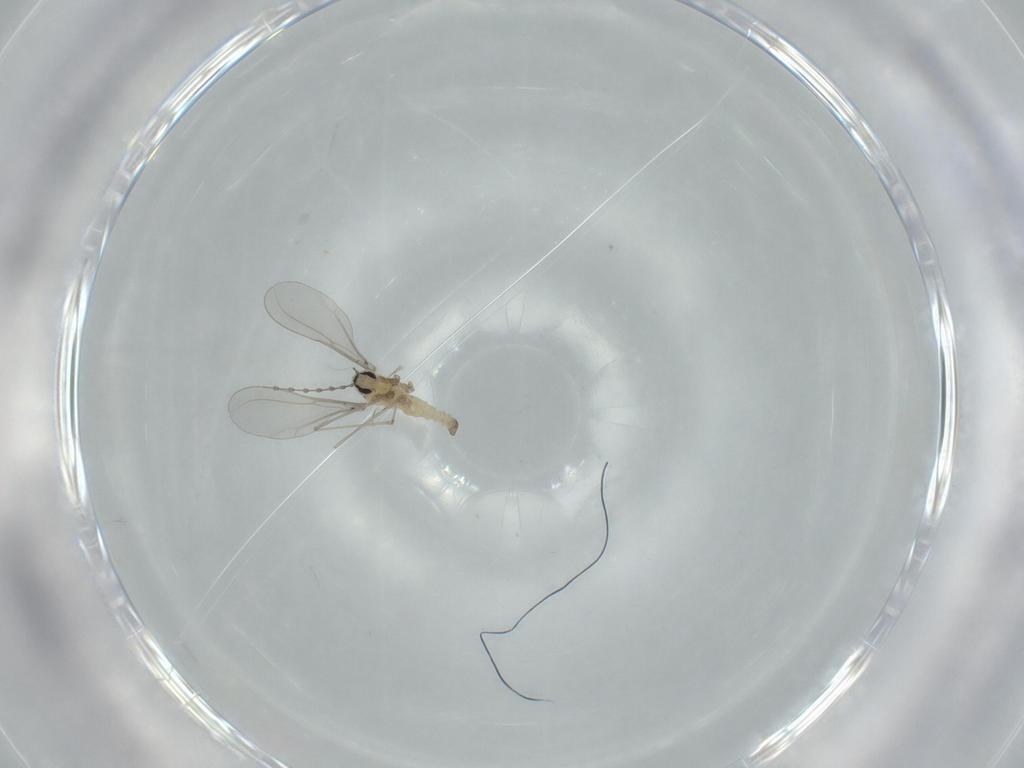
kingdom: Animalia
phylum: Arthropoda
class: Insecta
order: Diptera
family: Cecidomyiidae
